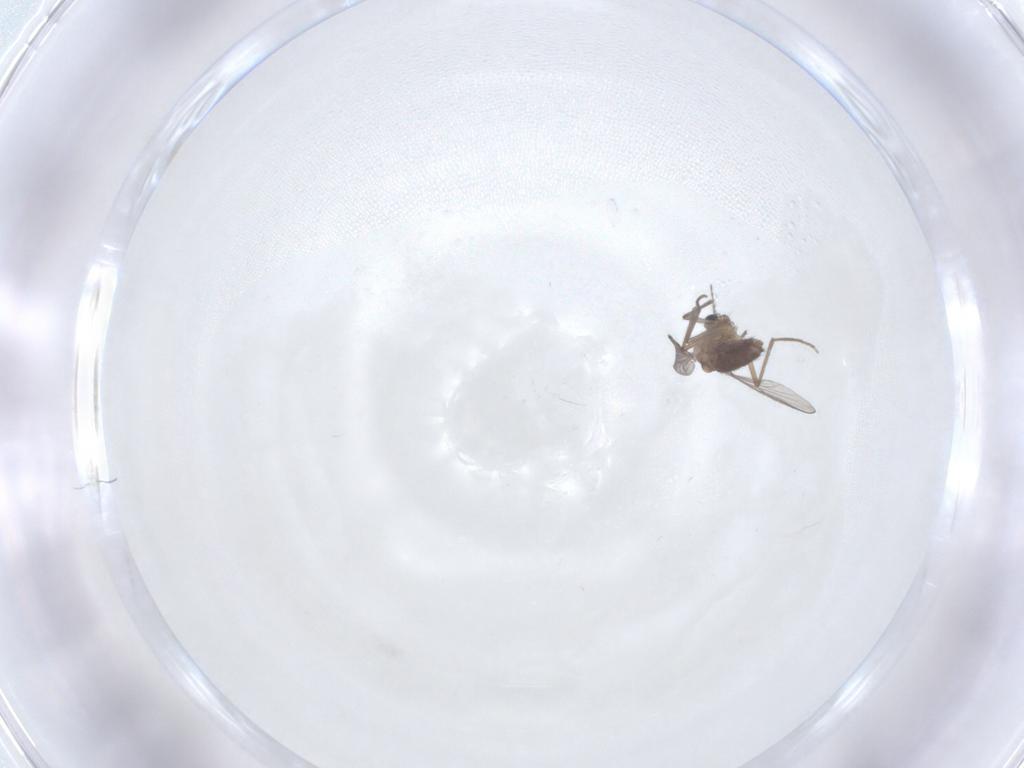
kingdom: Animalia
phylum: Arthropoda
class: Insecta
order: Diptera
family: Chironomidae
